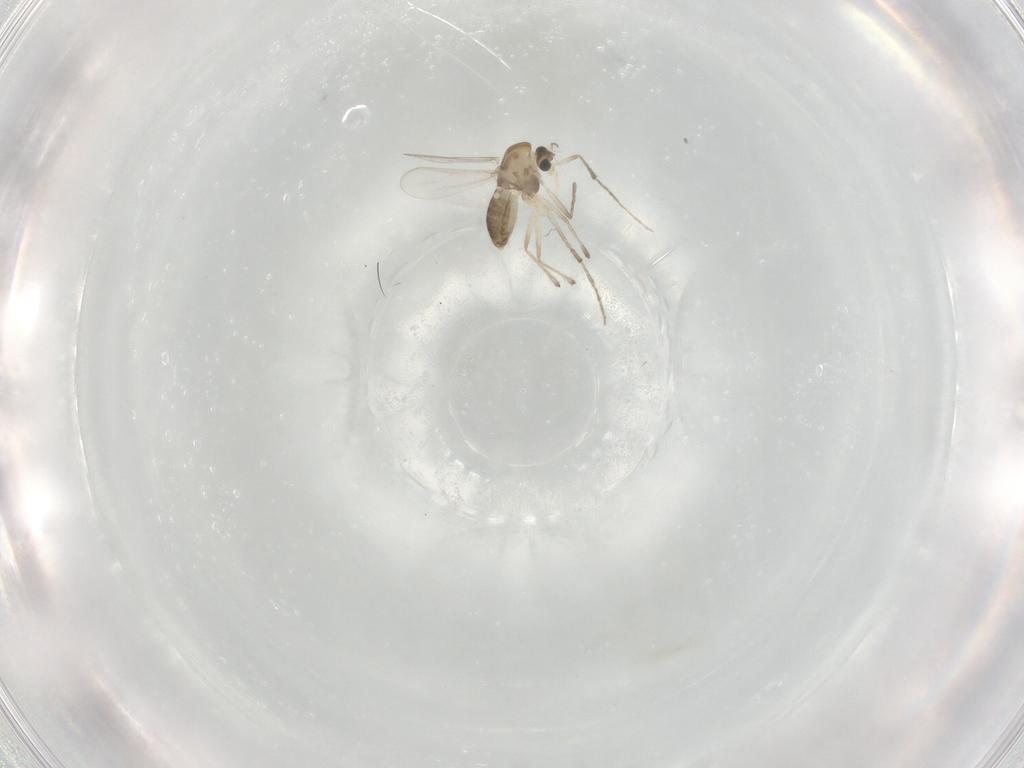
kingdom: Animalia
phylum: Arthropoda
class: Insecta
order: Diptera
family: Chironomidae
